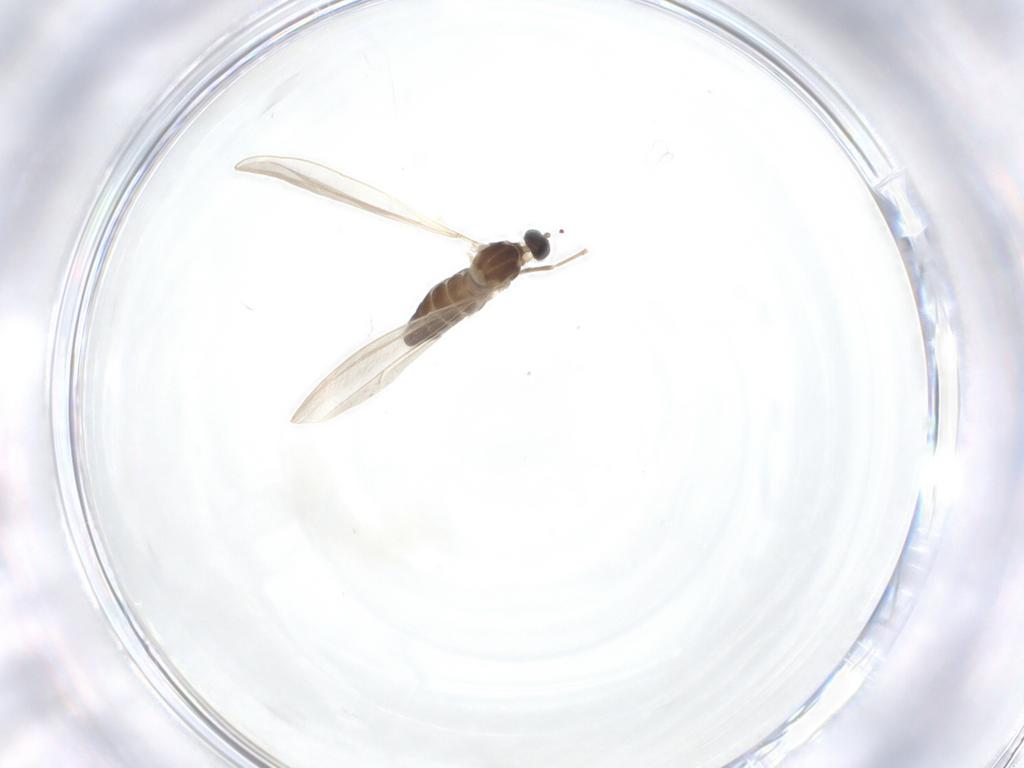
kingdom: Animalia
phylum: Arthropoda
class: Insecta
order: Diptera
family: Cecidomyiidae
